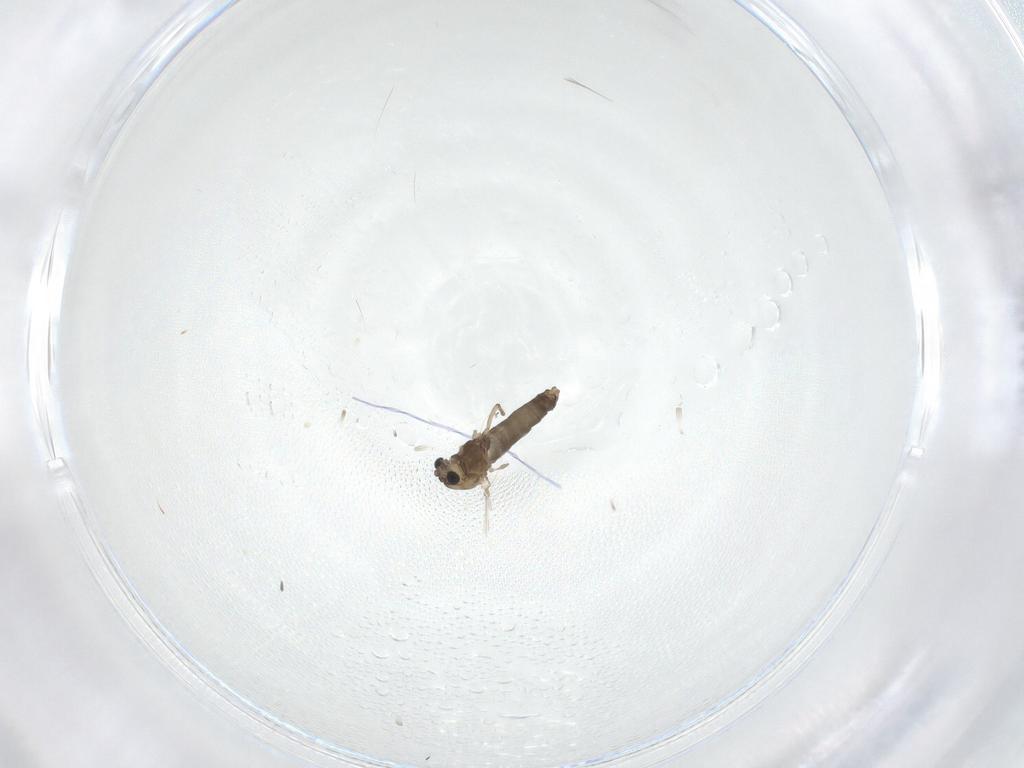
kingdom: Animalia
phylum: Arthropoda
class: Insecta
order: Diptera
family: Chironomidae
